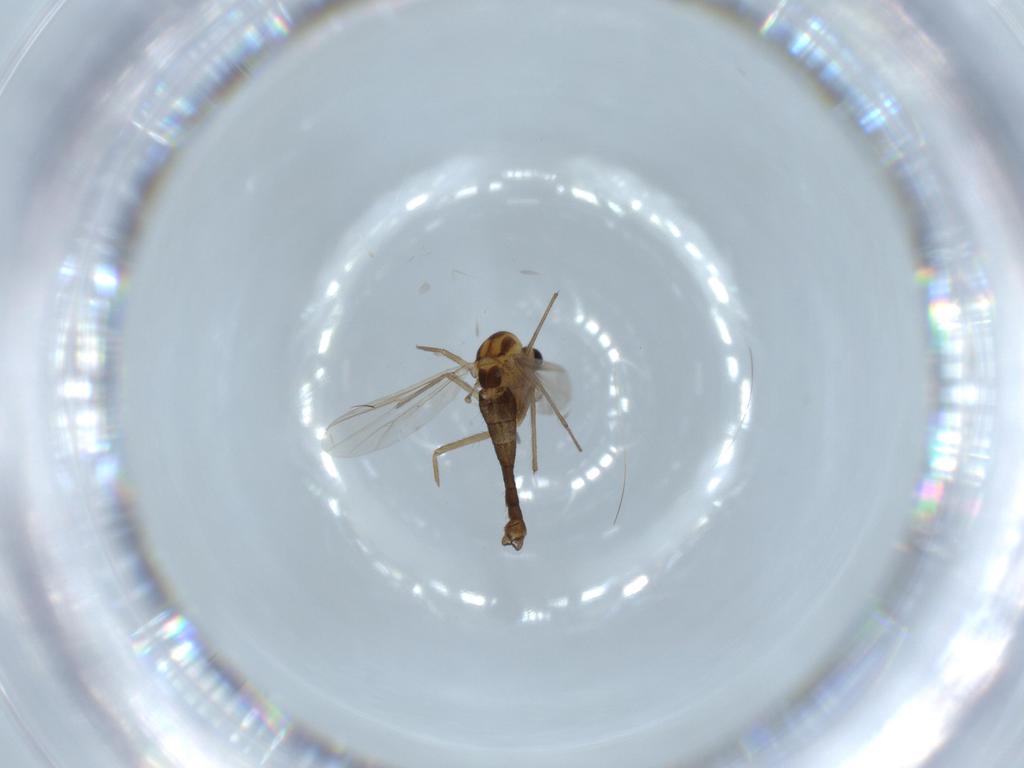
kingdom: Animalia
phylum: Arthropoda
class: Insecta
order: Diptera
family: Chironomidae
